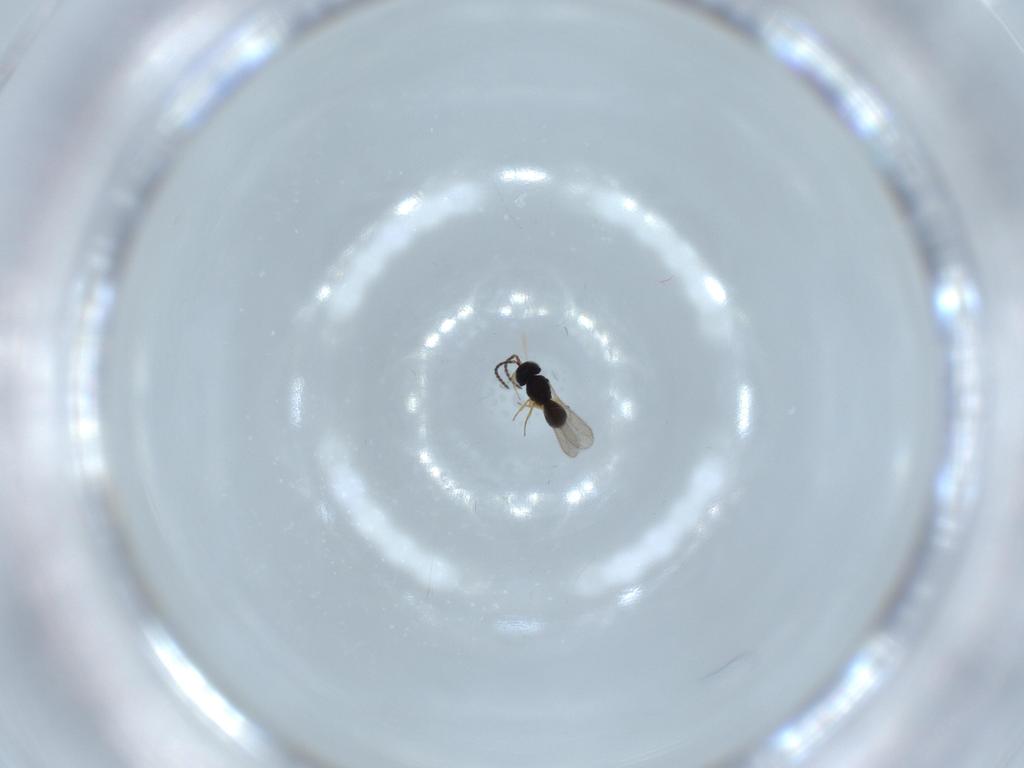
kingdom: Animalia
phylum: Arthropoda
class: Insecta
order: Hymenoptera
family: Scelionidae
